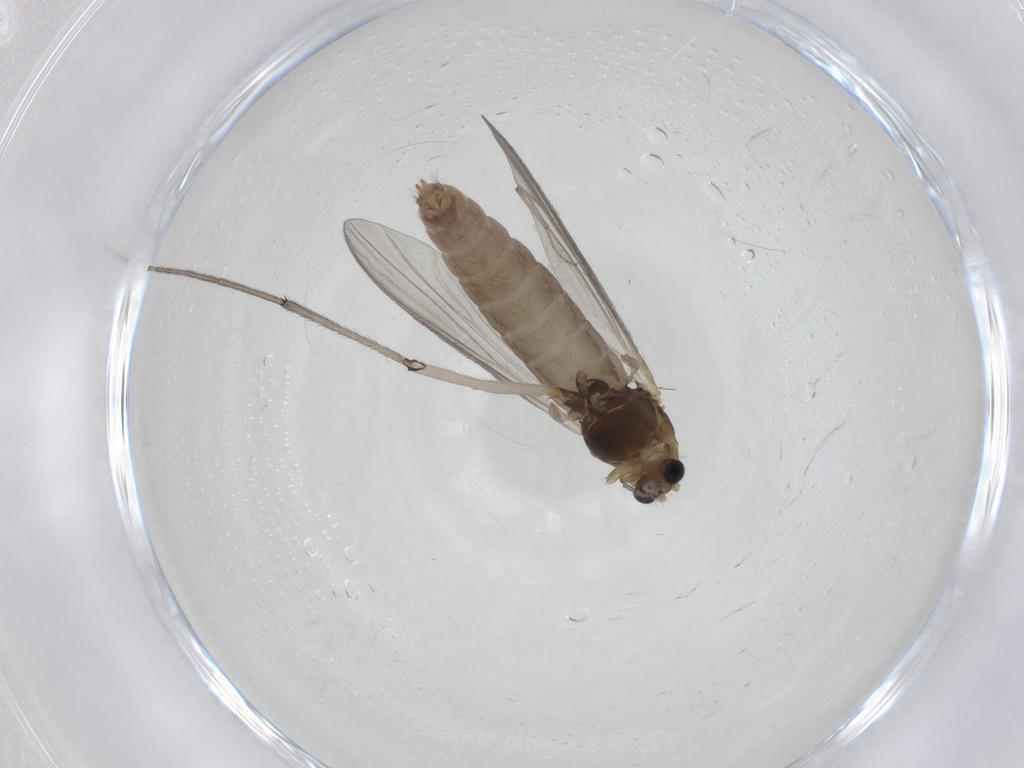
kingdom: Animalia
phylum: Arthropoda
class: Insecta
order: Diptera
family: Chironomidae
